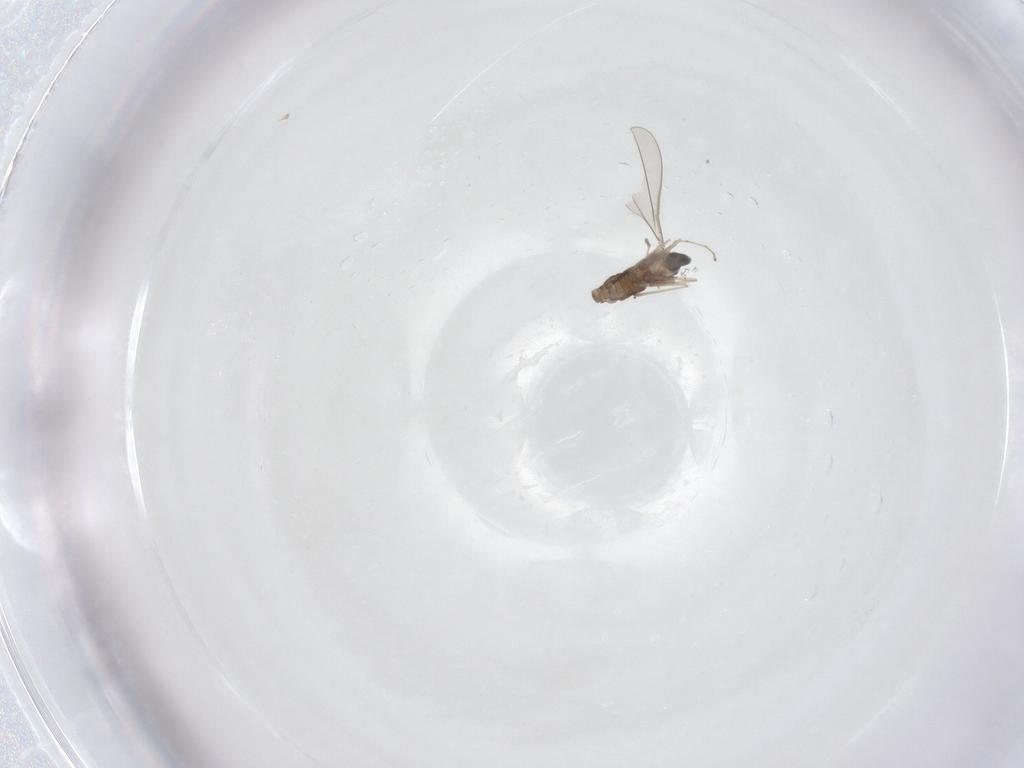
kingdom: Animalia
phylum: Arthropoda
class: Insecta
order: Diptera
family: Cecidomyiidae
